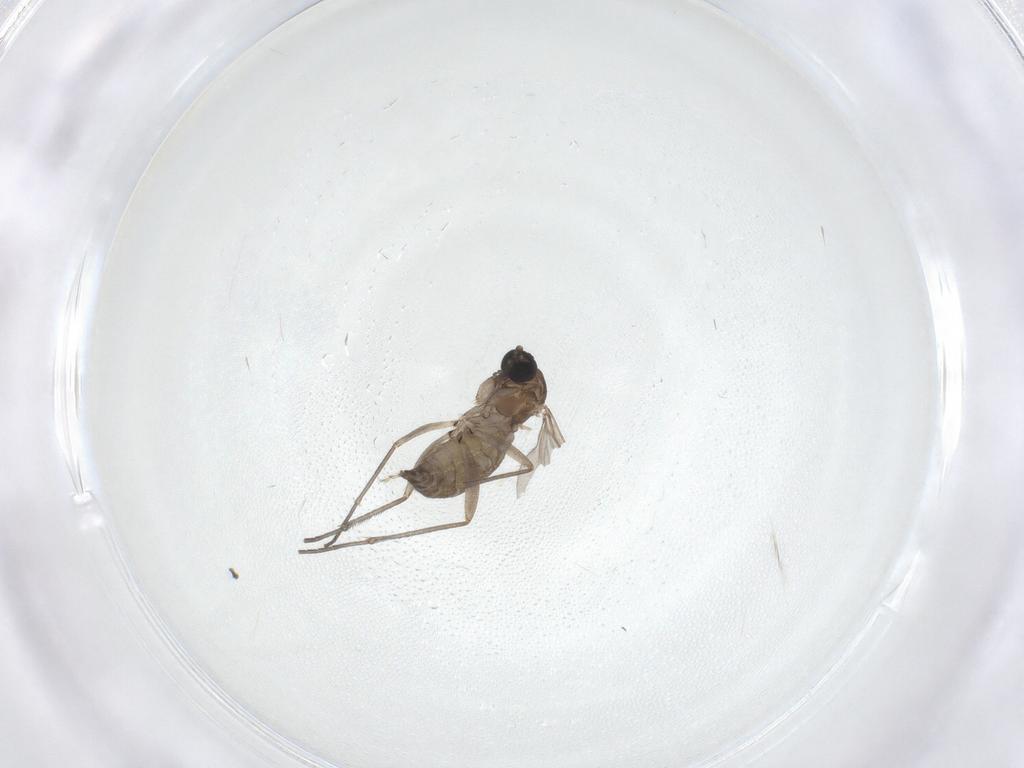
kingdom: Animalia
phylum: Arthropoda
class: Insecta
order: Diptera
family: Sciaridae
